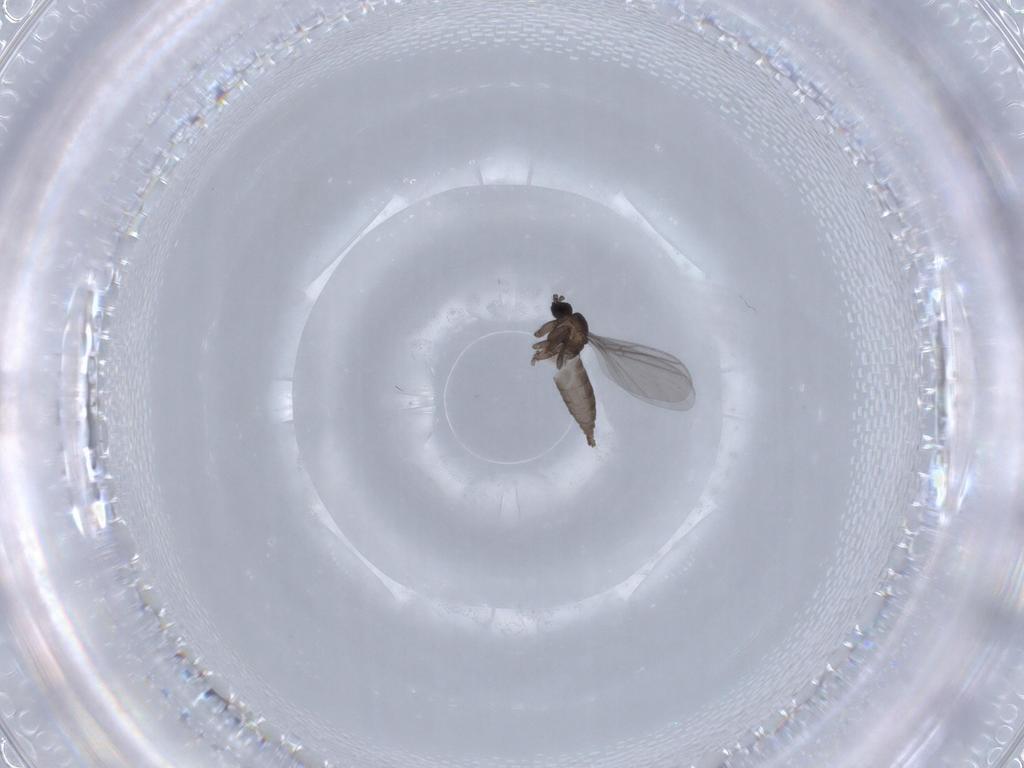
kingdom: Animalia
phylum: Arthropoda
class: Insecta
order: Diptera
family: Sciaridae
